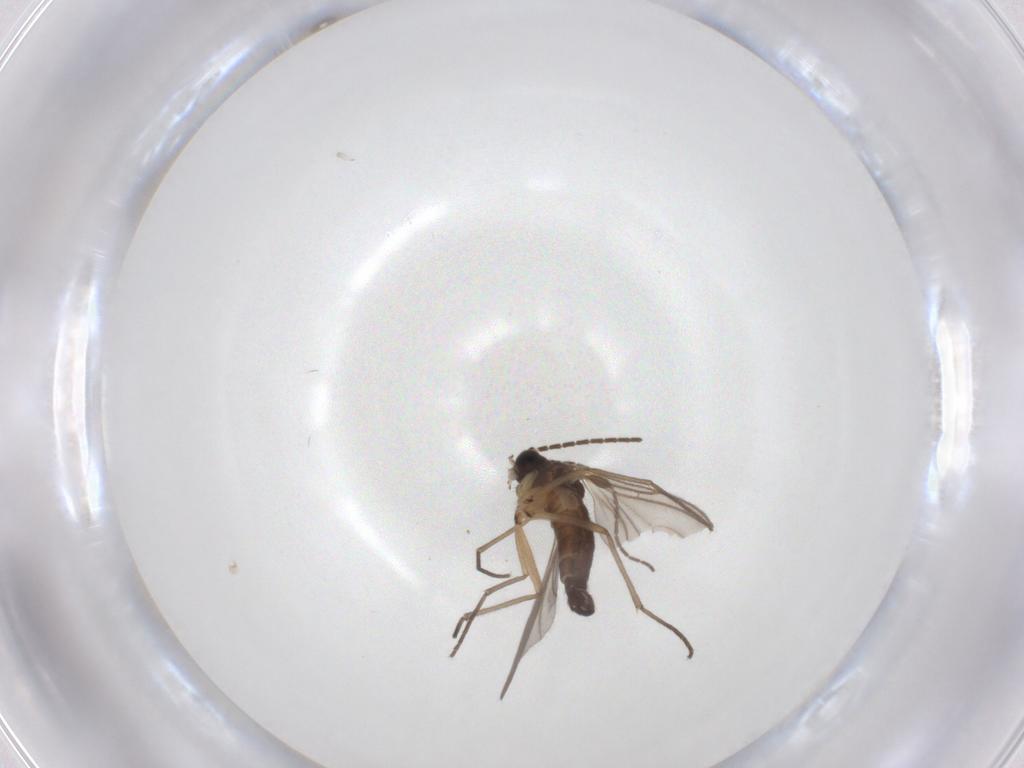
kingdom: Animalia
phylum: Arthropoda
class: Insecta
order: Diptera
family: Sciaridae
